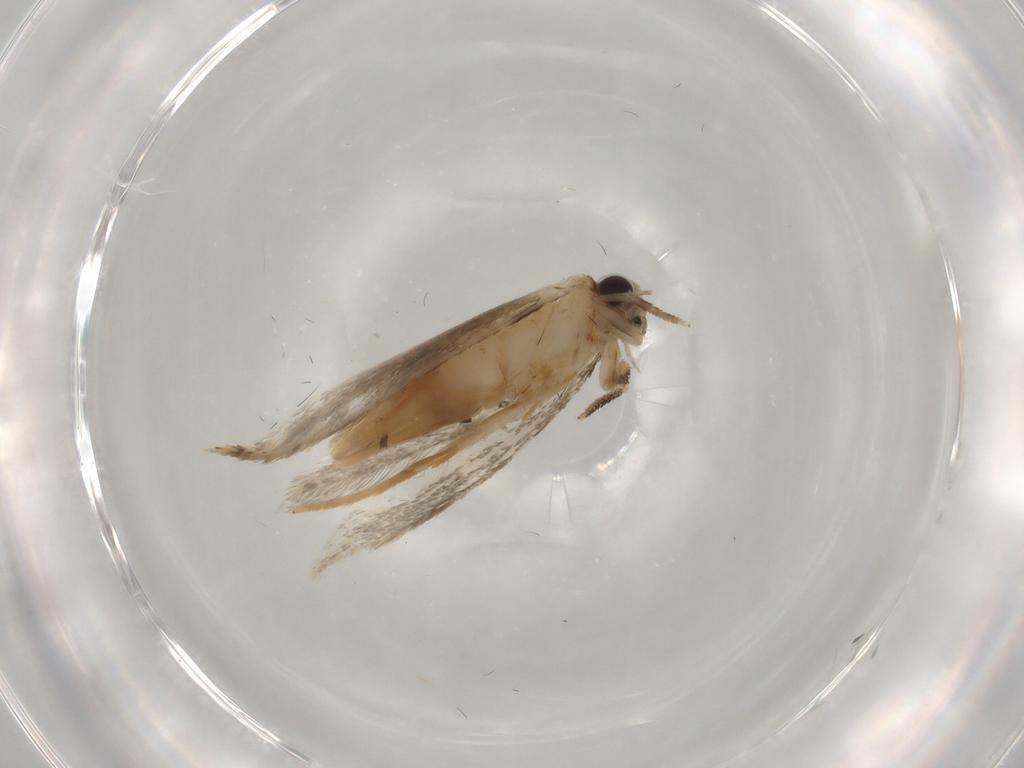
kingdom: Animalia
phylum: Arthropoda
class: Insecta
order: Lepidoptera
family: Tineidae
